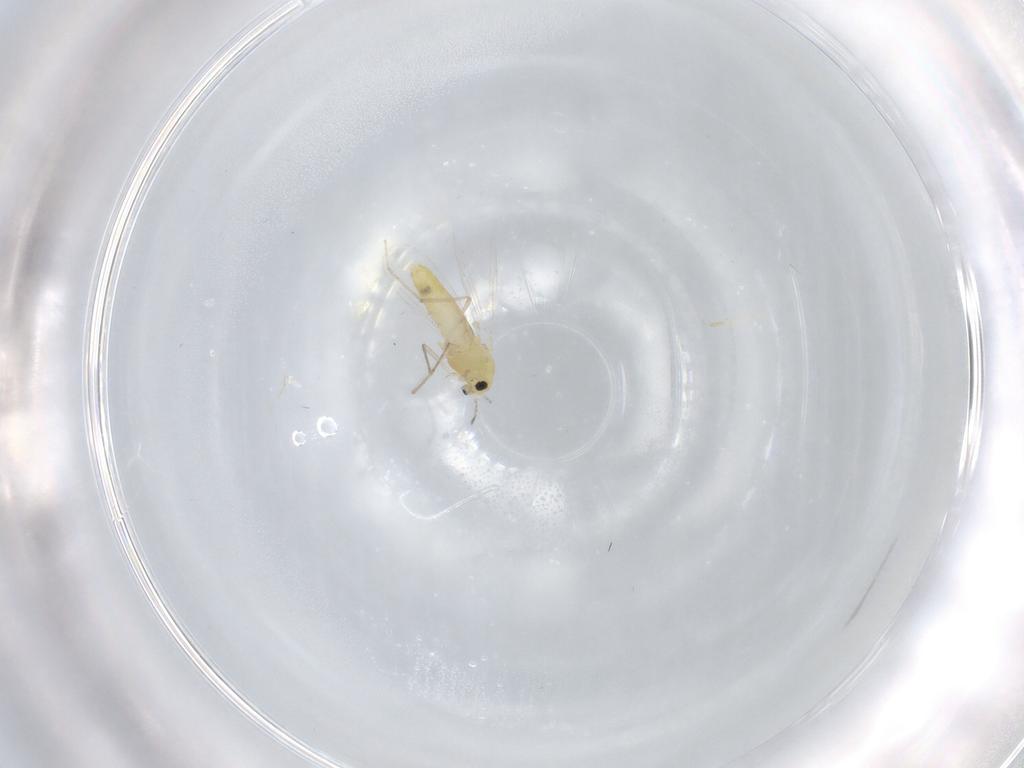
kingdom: Animalia
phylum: Arthropoda
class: Insecta
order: Diptera
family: Chironomidae
